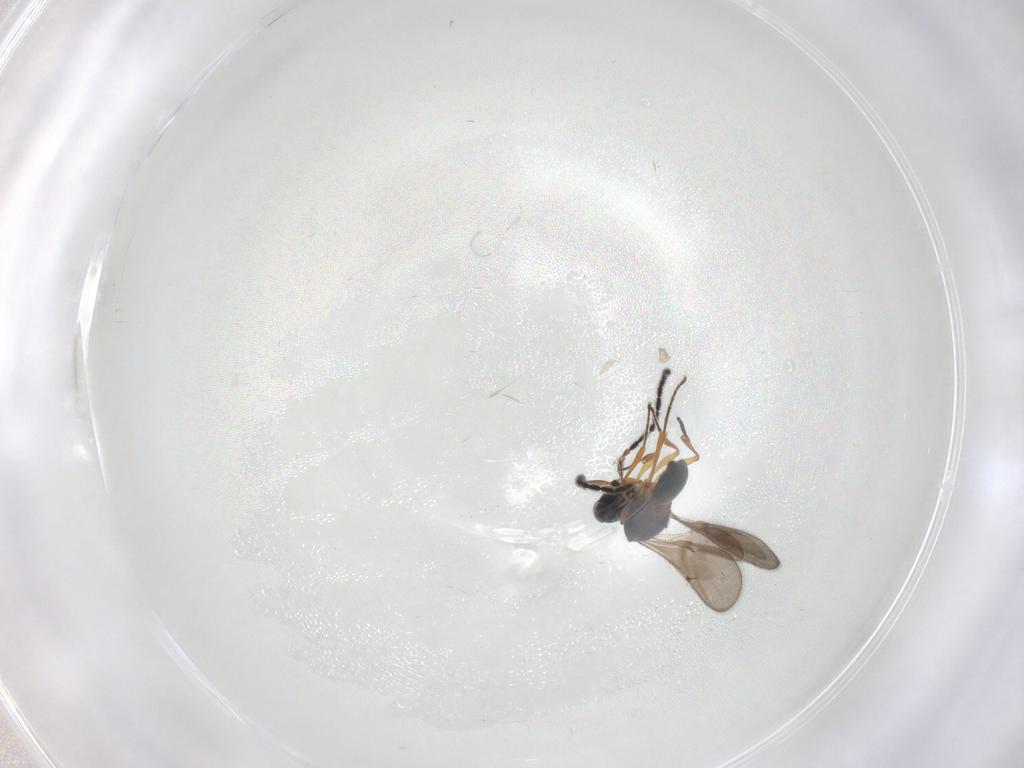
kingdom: Animalia
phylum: Arthropoda
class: Insecta
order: Hymenoptera
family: Scelionidae
